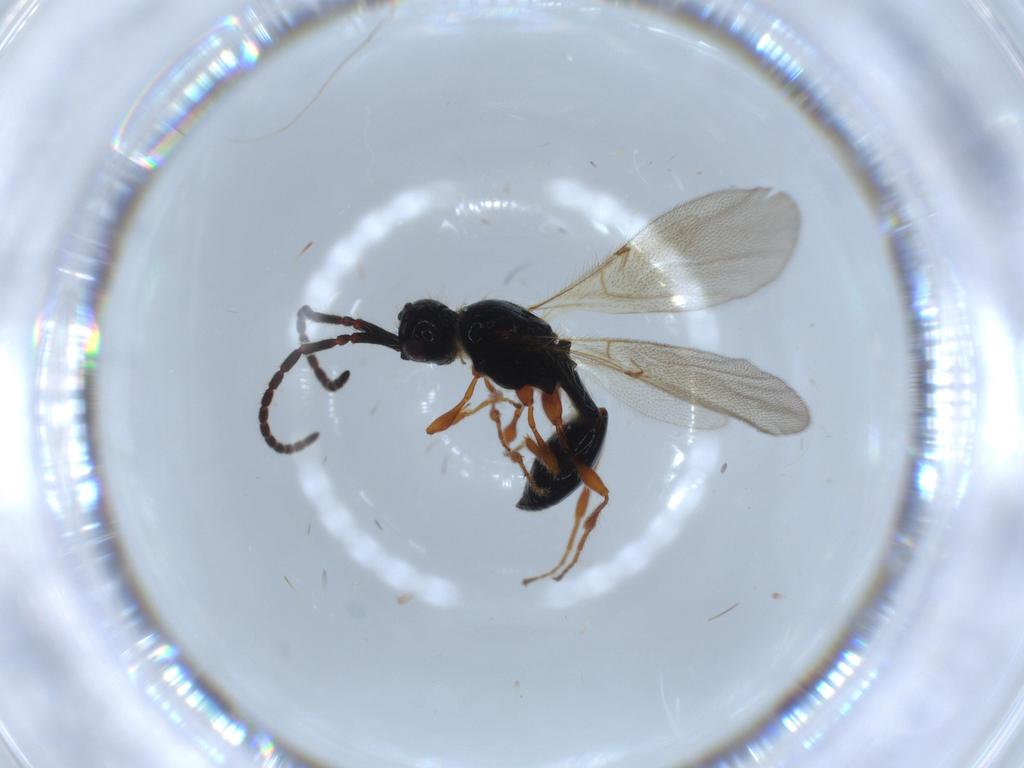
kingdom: Animalia
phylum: Arthropoda
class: Insecta
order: Hymenoptera
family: Diapriidae
